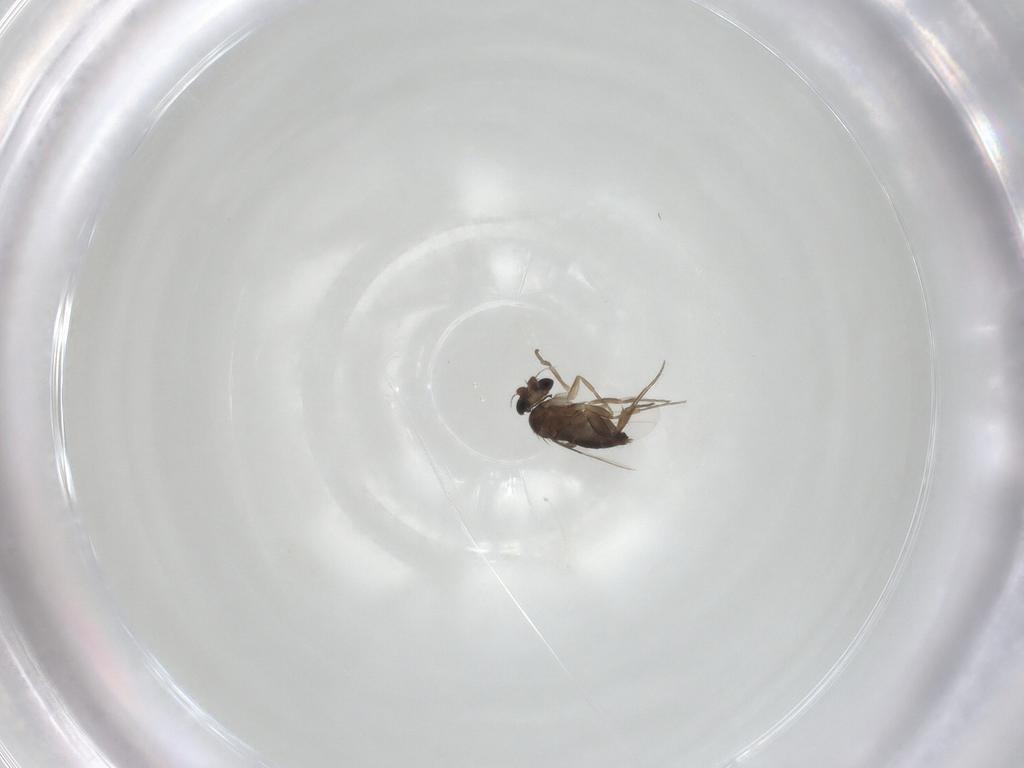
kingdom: Animalia
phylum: Arthropoda
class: Insecta
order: Diptera
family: Phoridae
